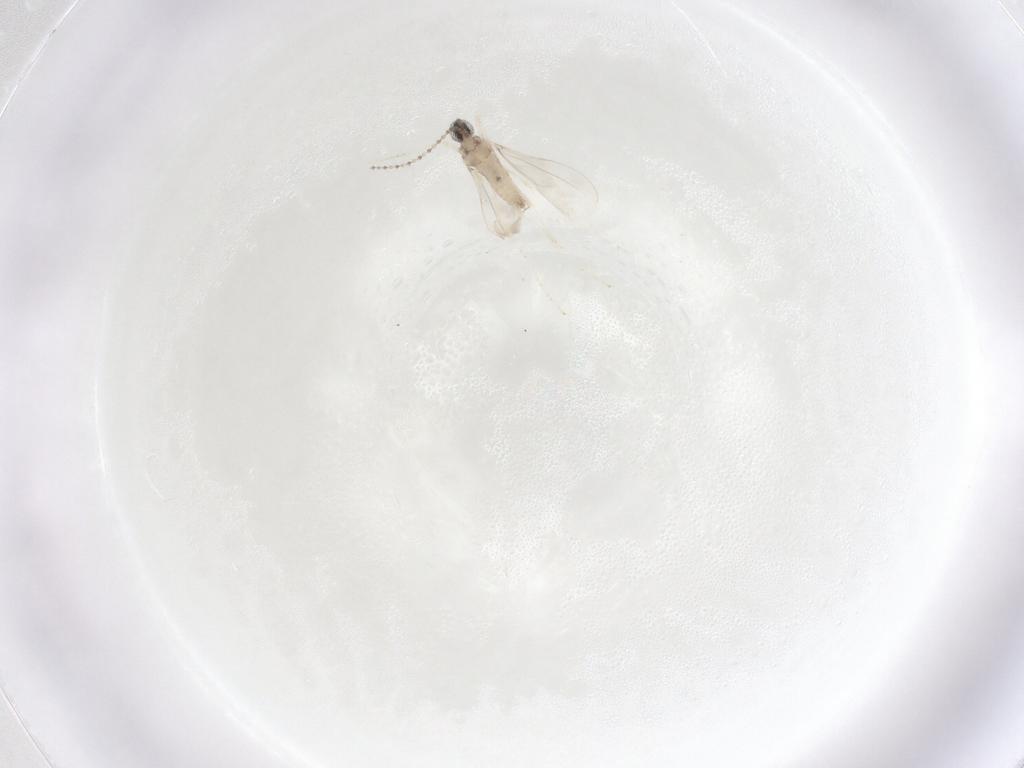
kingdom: Animalia
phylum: Arthropoda
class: Insecta
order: Diptera
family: Cecidomyiidae
